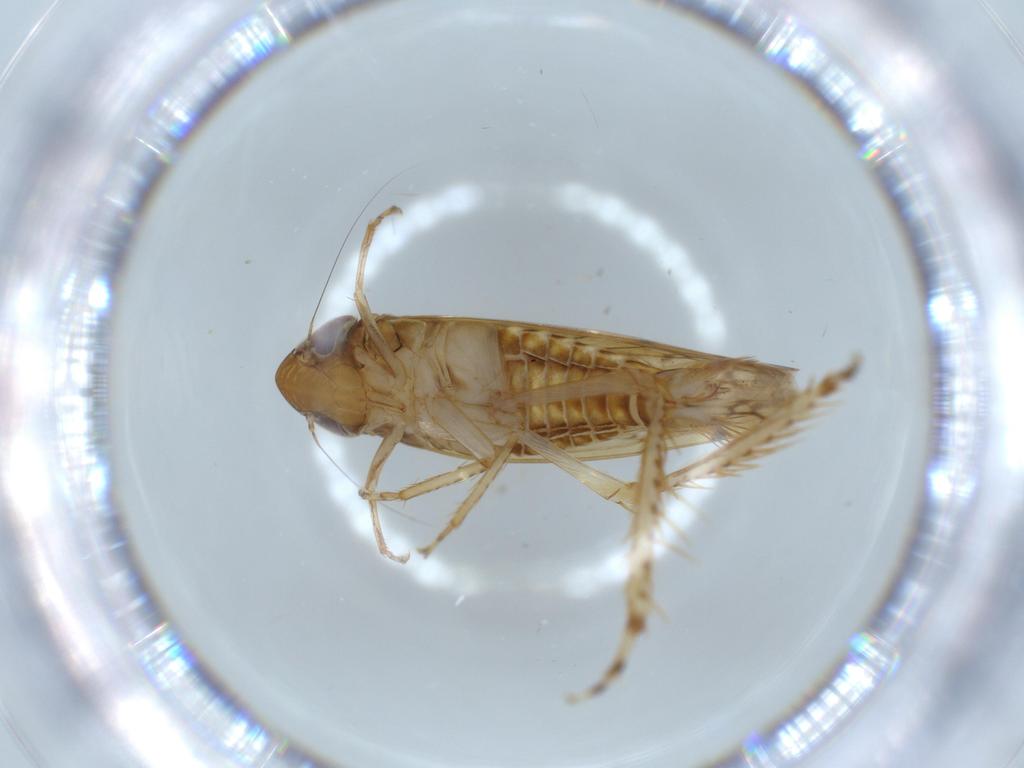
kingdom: Animalia
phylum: Arthropoda
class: Insecta
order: Hemiptera
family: Cicadellidae
